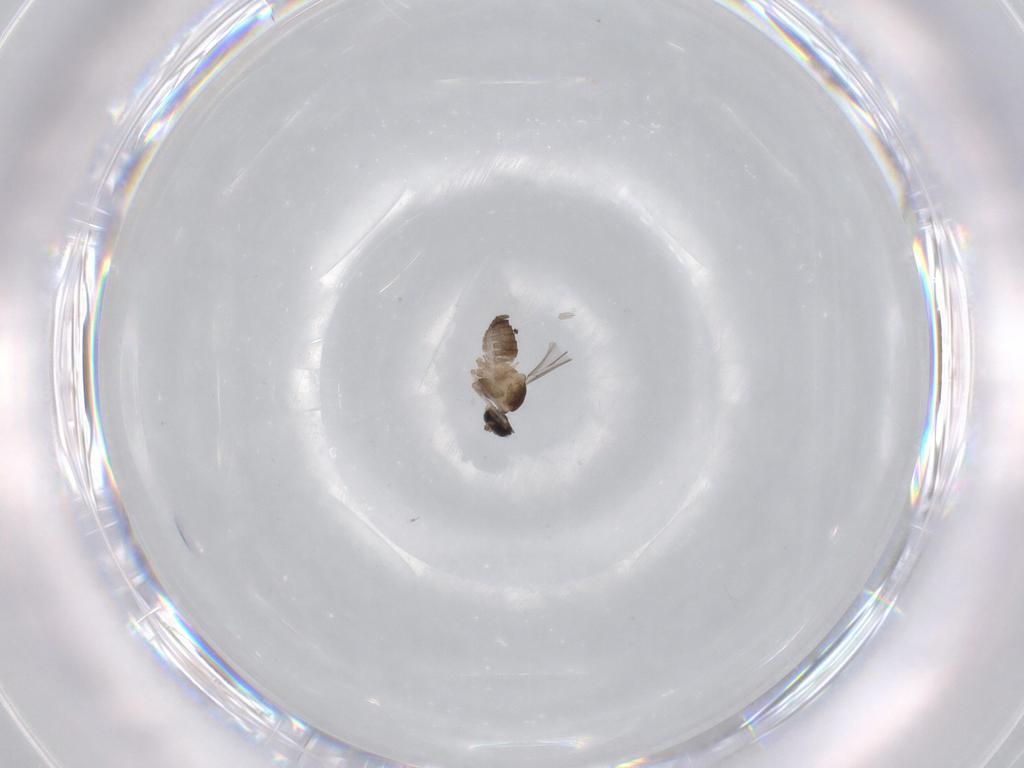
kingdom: Animalia
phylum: Arthropoda
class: Insecta
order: Diptera
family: Cecidomyiidae
